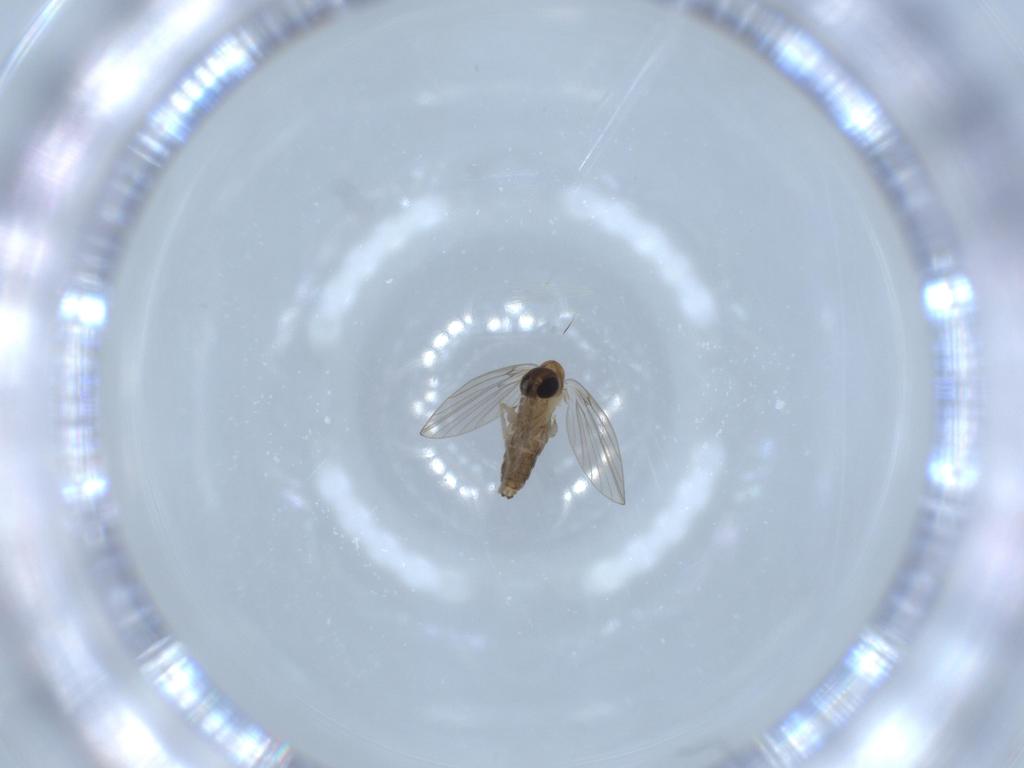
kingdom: Animalia
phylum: Arthropoda
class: Insecta
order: Diptera
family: Psychodidae
